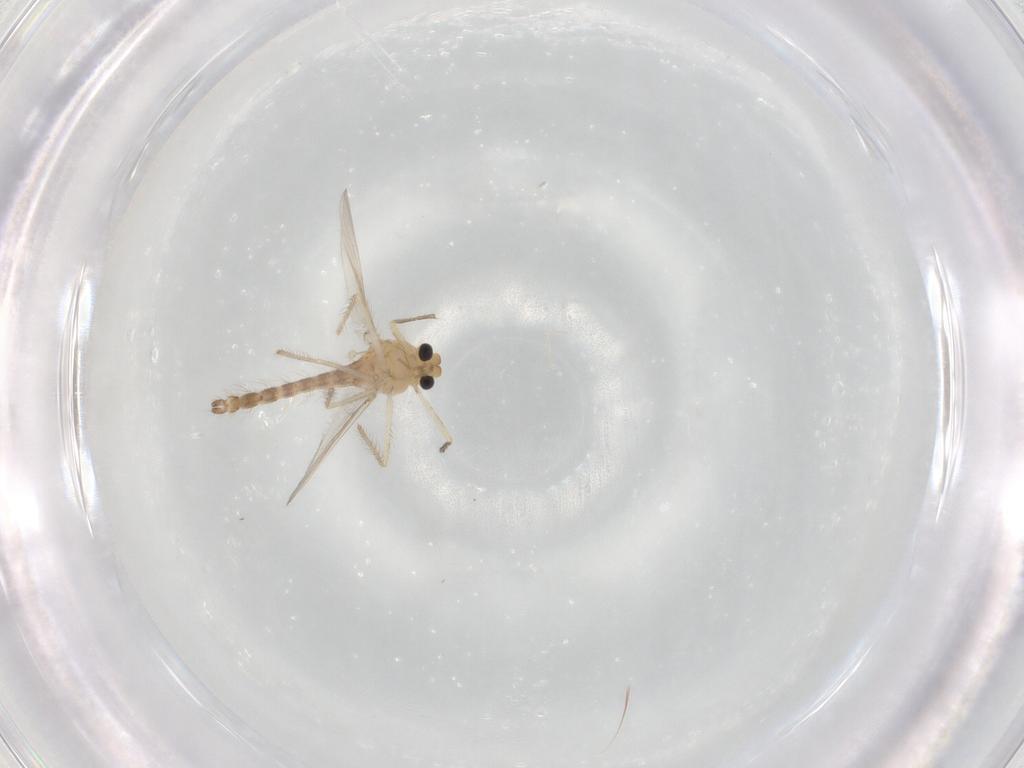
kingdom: Animalia
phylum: Arthropoda
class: Insecta
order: Diptera
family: Chironomidae
